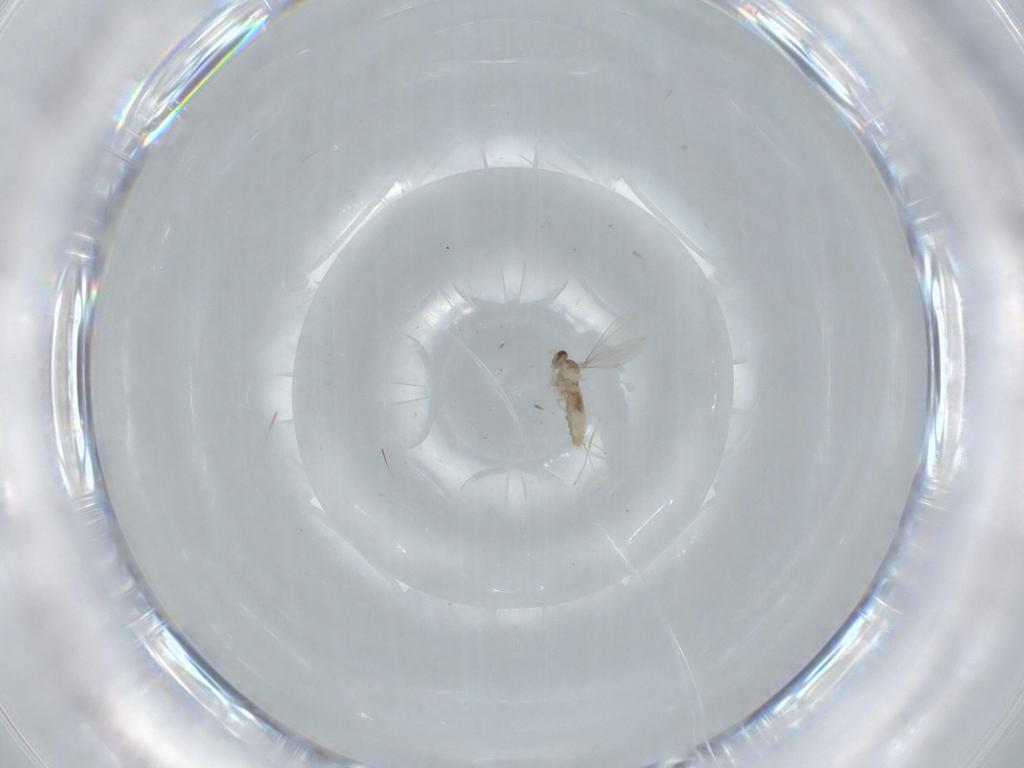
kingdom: Animalia
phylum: Arthropoda
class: Insecta
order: Diptera
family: Cecidomyiidae
